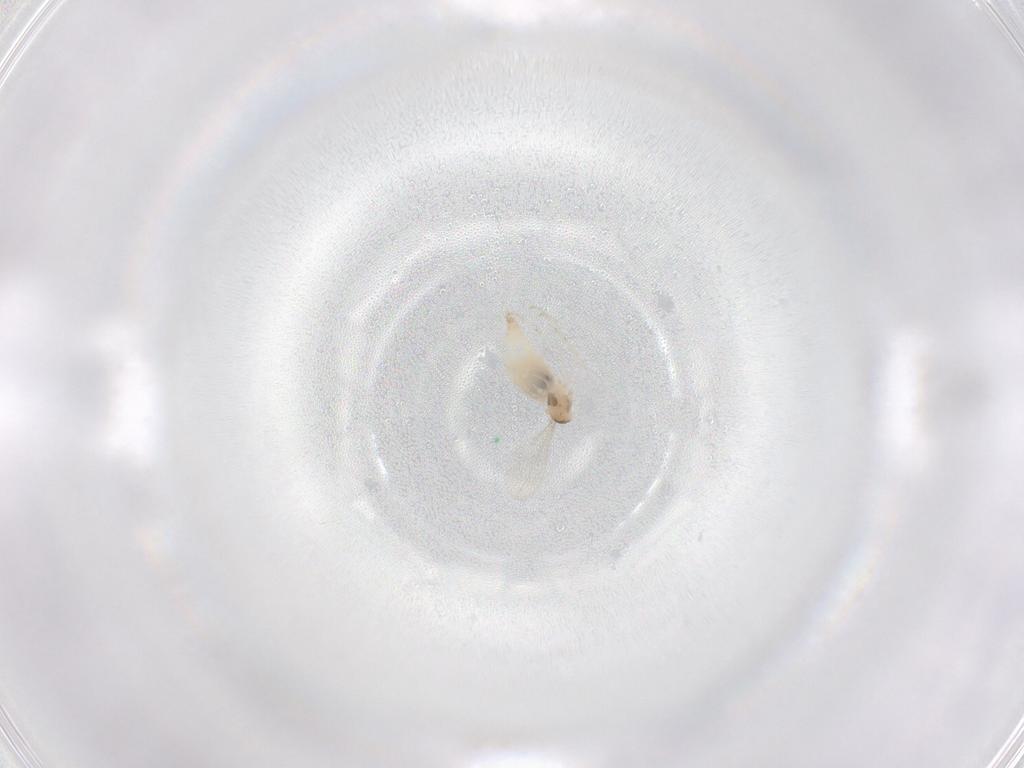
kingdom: Animalia
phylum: Arthropoda
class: Insecta
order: Diptera
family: Cecidomyiidae
